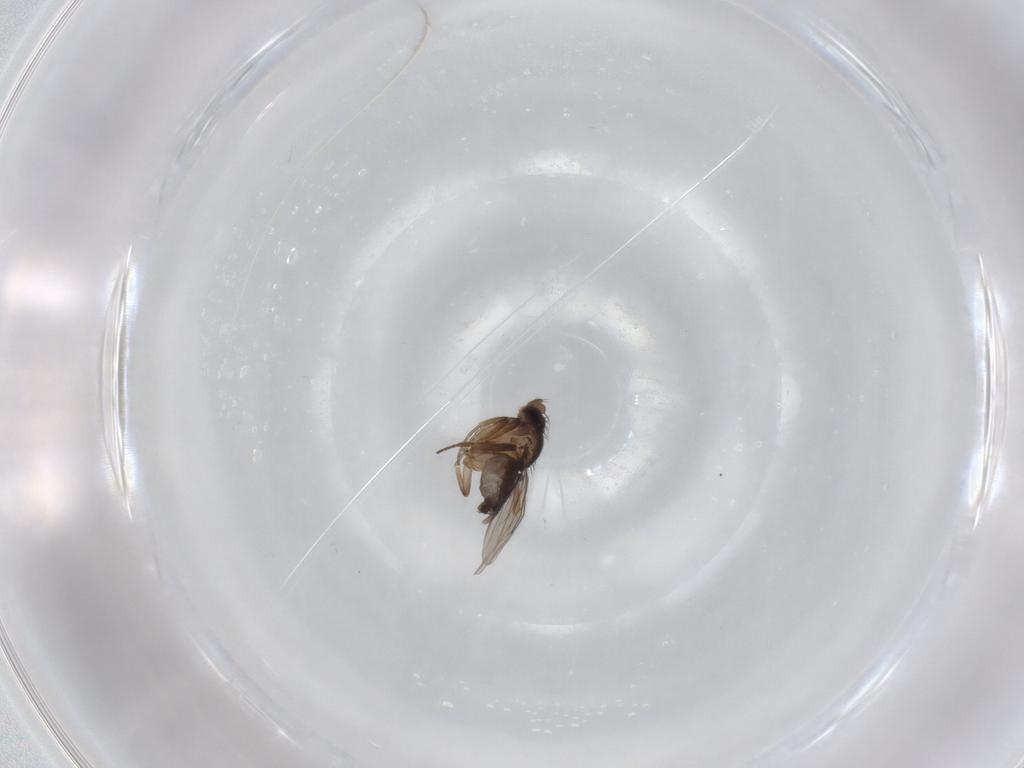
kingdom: Animalia
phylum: Arthropoda
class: Insecta
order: Diptera
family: Phoridae
